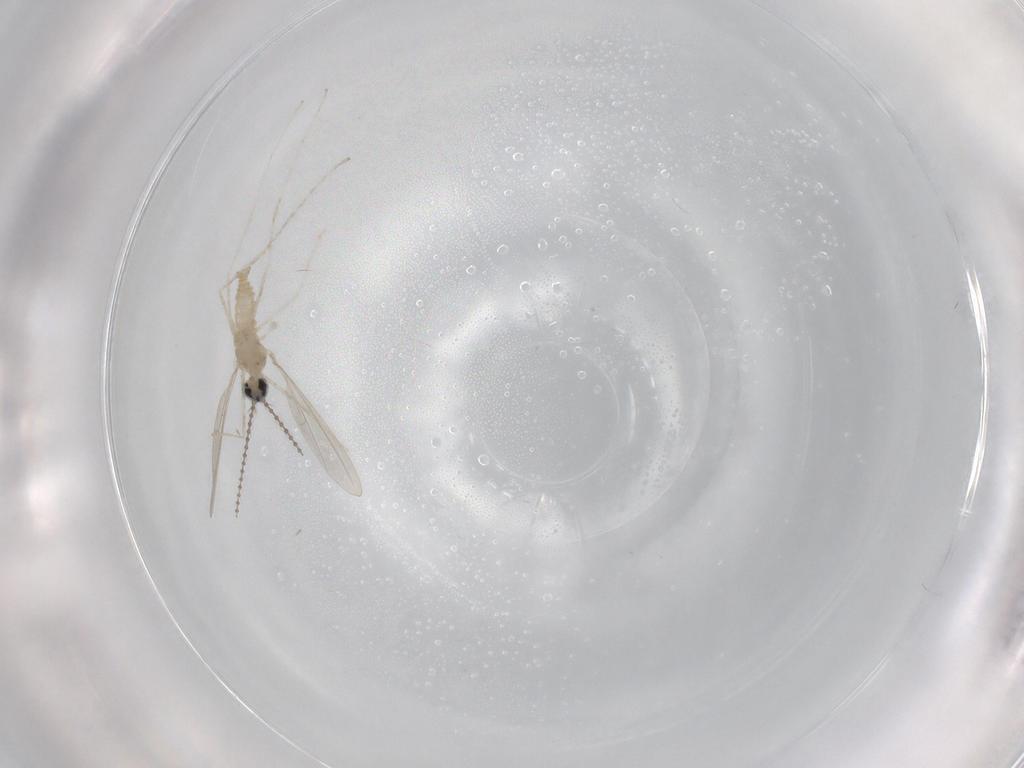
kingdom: Animalia
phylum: Arthropoda
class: Insecta
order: Diptera
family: Cecidomyiidae
